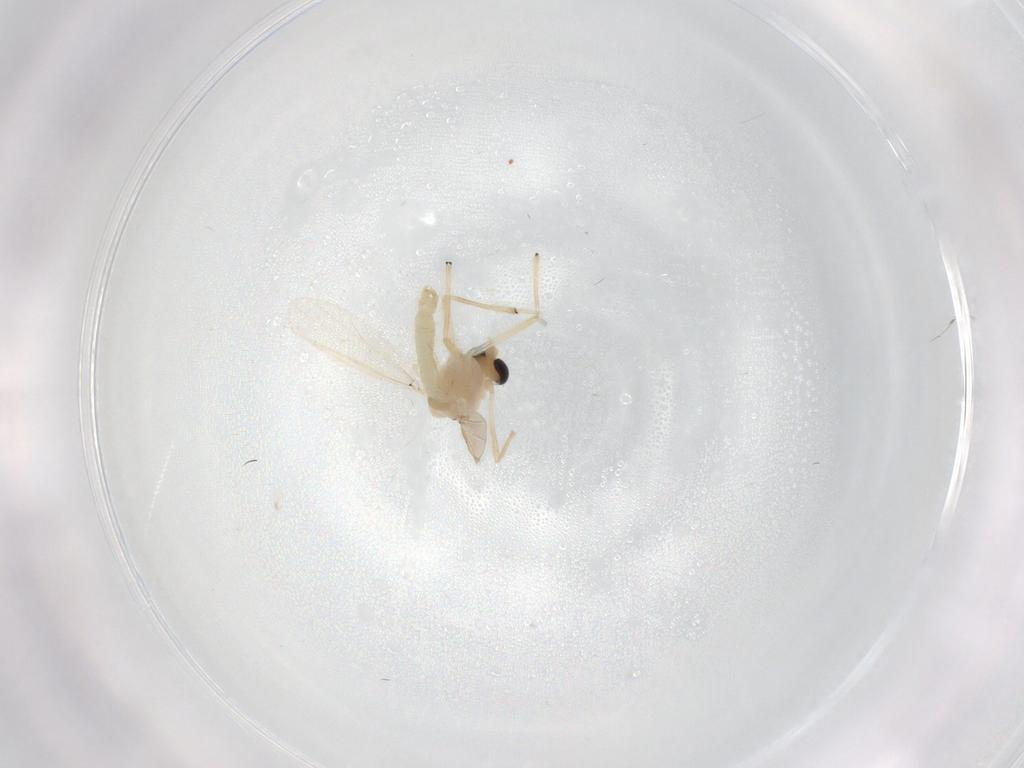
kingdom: Animalia
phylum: Arthropoda
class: Insecta
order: Diptera
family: Chironomidae
